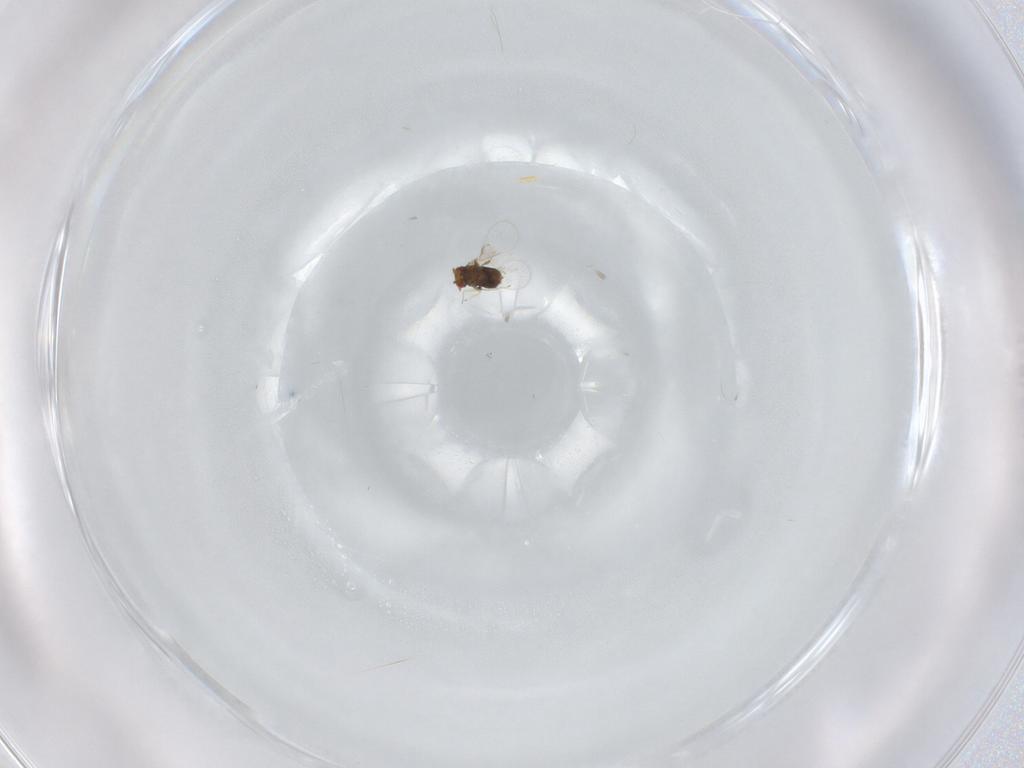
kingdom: Animalia
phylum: Arthropoda
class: Insecta
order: Hymenoptera
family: Trichogrammatidae
